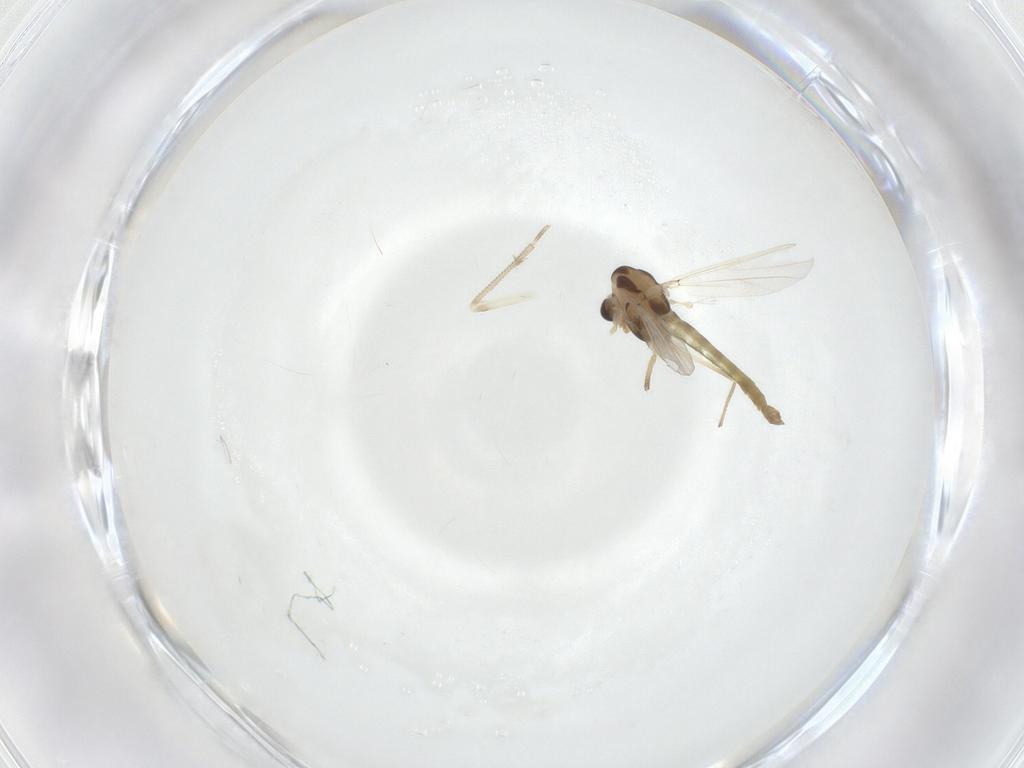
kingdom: Animalia
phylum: Arthropoda
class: Insecta
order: Diptera
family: Chironomidae
